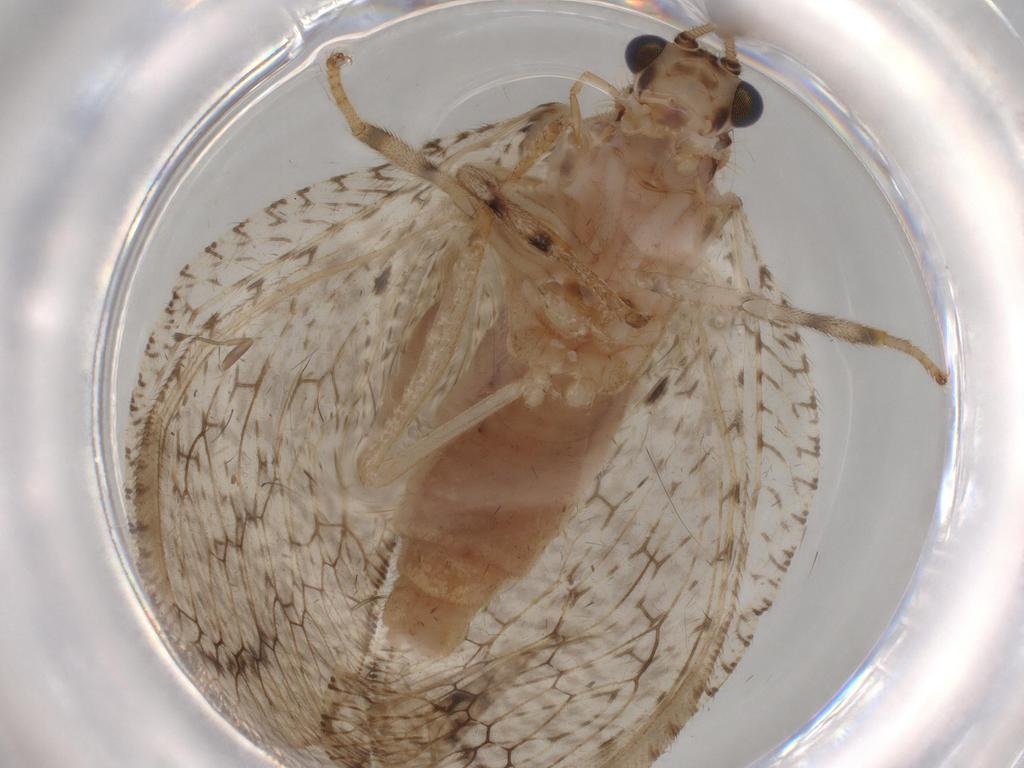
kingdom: Animalia
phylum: Arthropoda
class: Insecta
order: Neuroptera
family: Hemerobiidae
